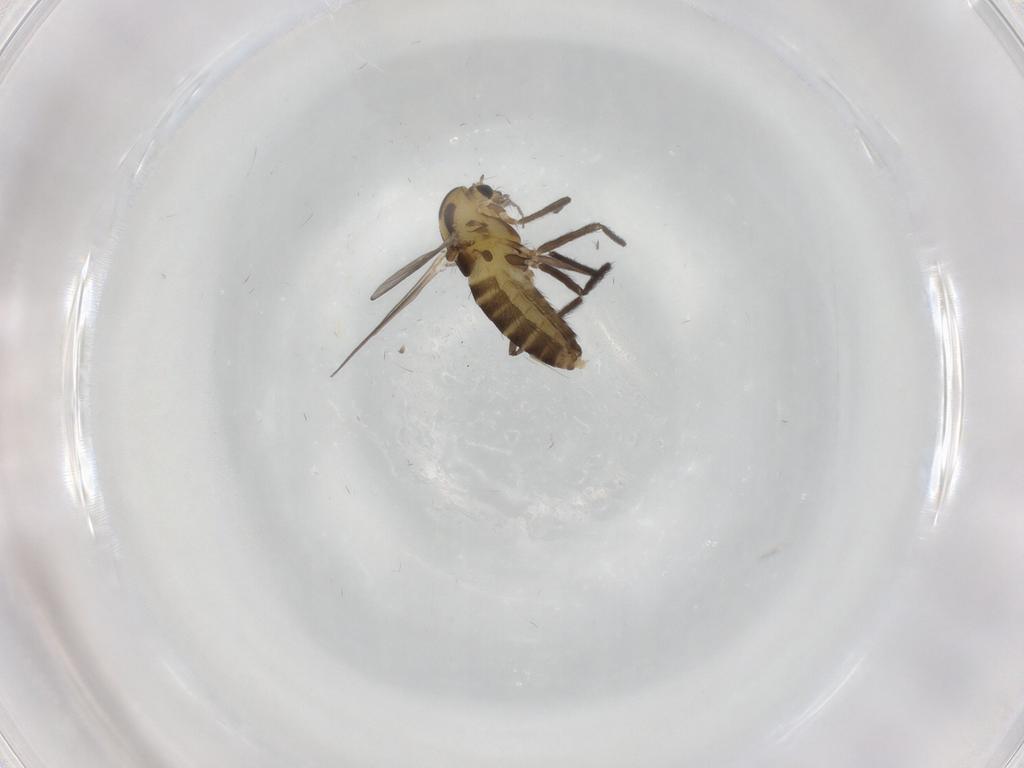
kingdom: Animalia
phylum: Arthropoda
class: Insecta
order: Diptera
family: Chironomidae
